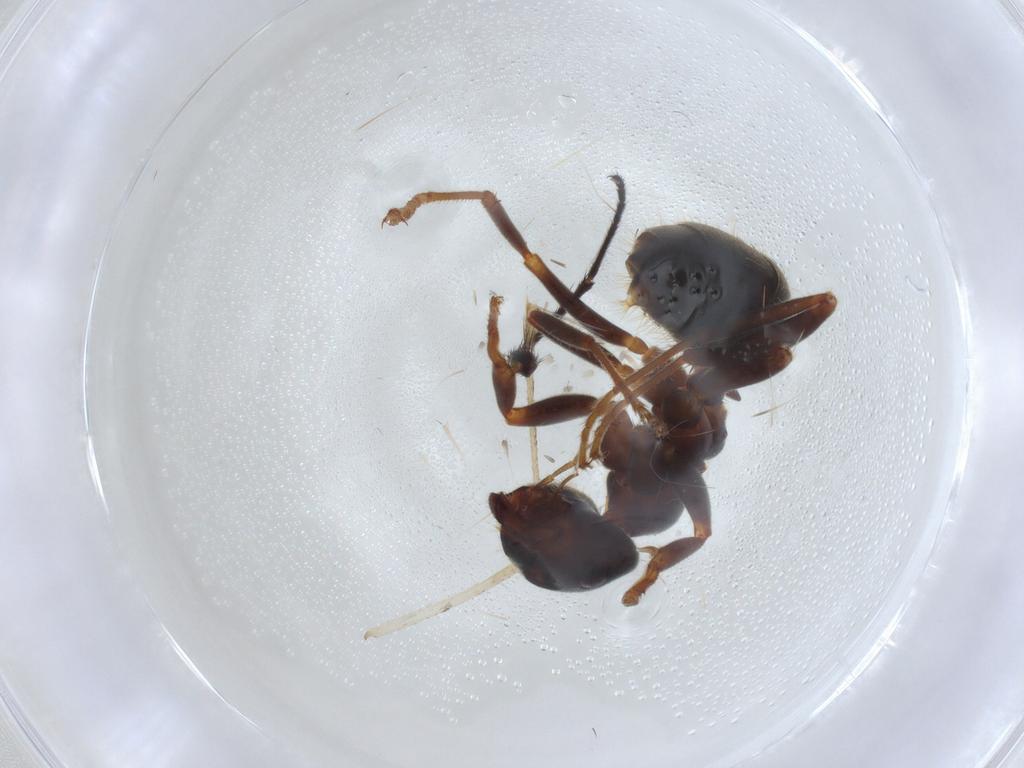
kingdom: Animalia
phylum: Arthropoda
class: Insecta
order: Hymenoptera
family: Formicidae
